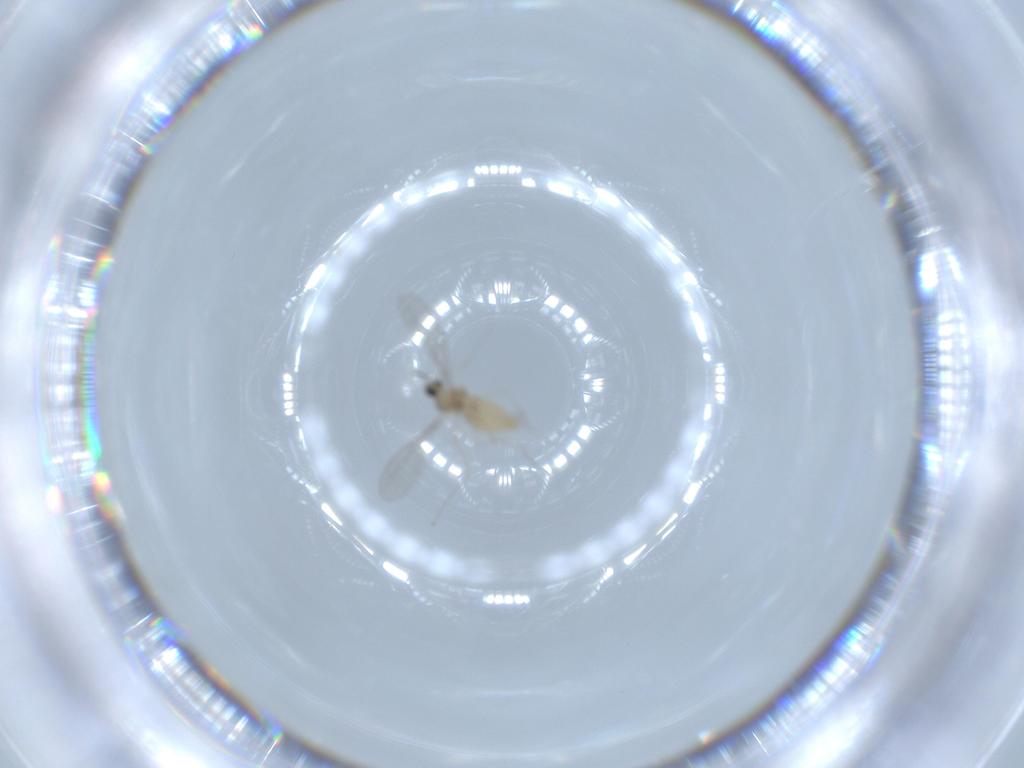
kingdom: Animalia
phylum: Arthropoda
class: Insecta
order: Diptera
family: Cecidomyiidae
